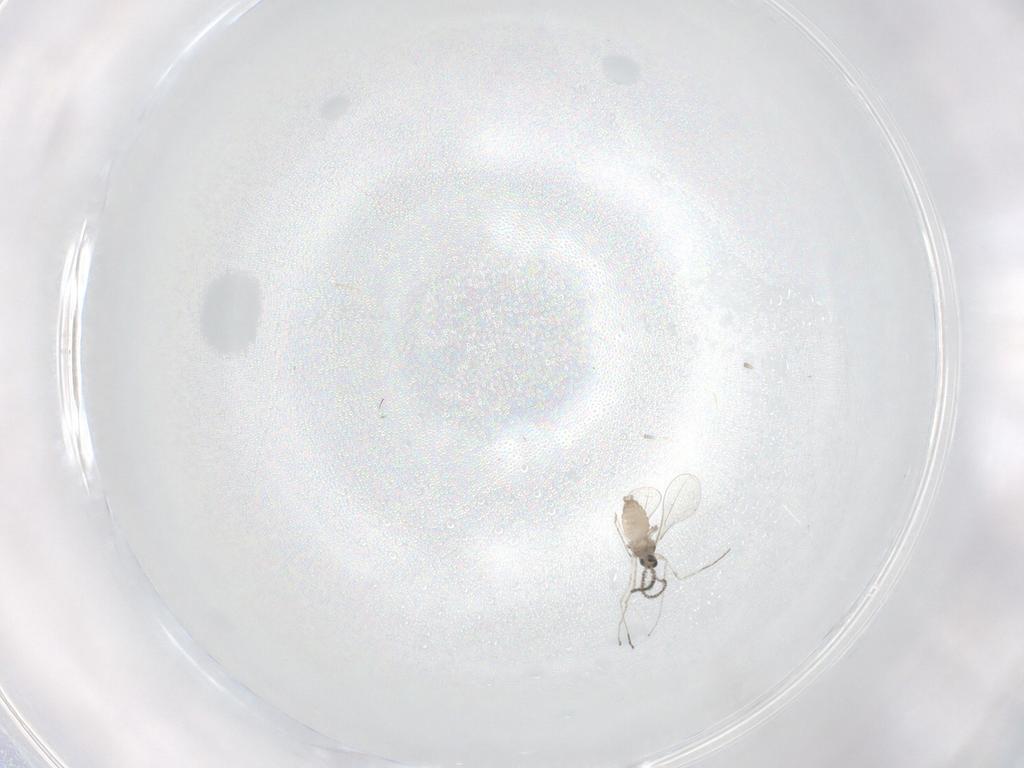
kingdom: Animalia
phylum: Arthropoda
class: Insecta
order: Diptera
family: Keroplatidae
